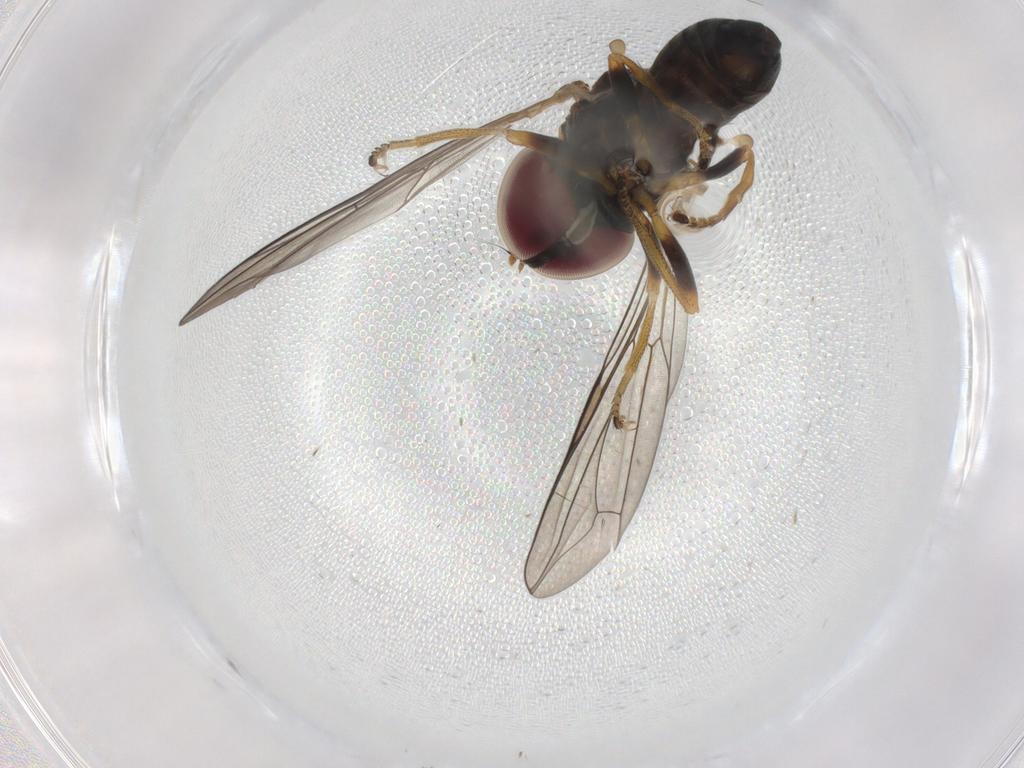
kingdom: Animalia
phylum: Arthropoda
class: Insecta
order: Diptera
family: Pipunculidae
